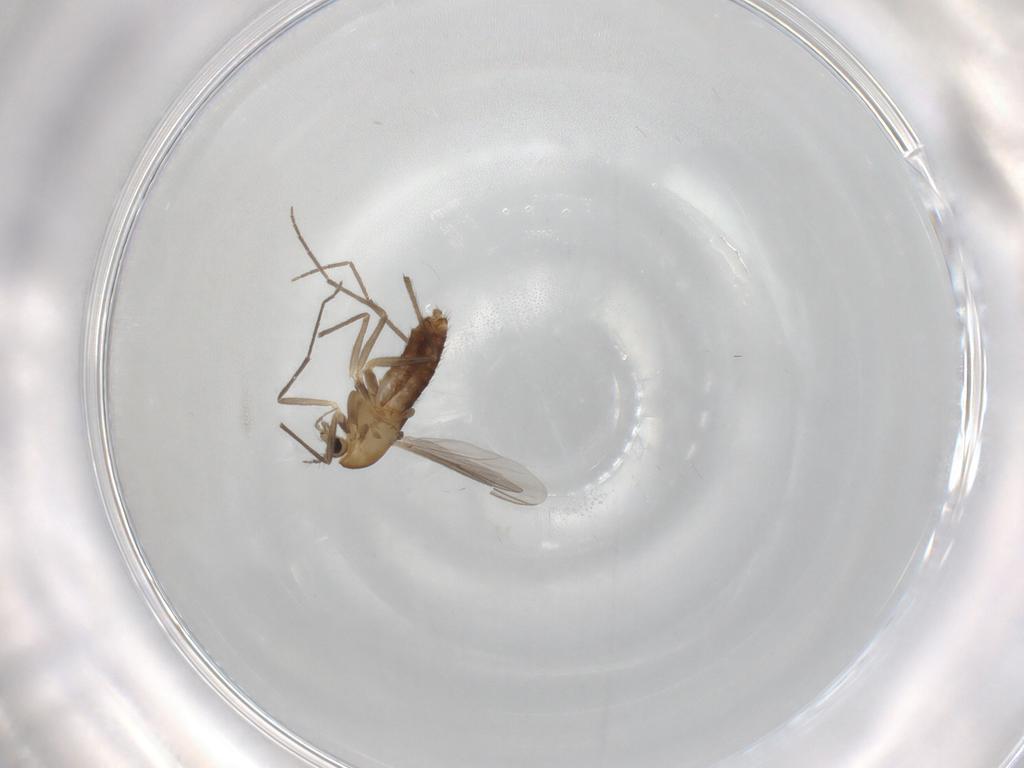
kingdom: Animalia
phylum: Arthropoda
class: Insecta
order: Diptera
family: Chironomidae
